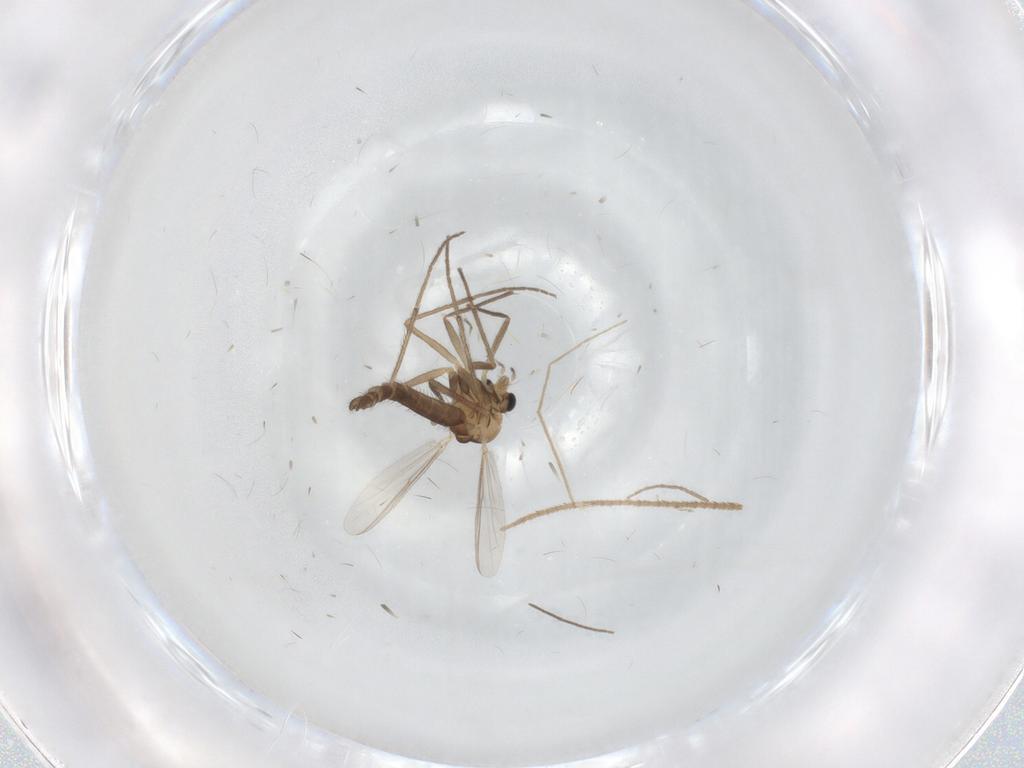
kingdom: Animalia
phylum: Arthropoda
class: Insecta
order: Diptera
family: Chironomidae
